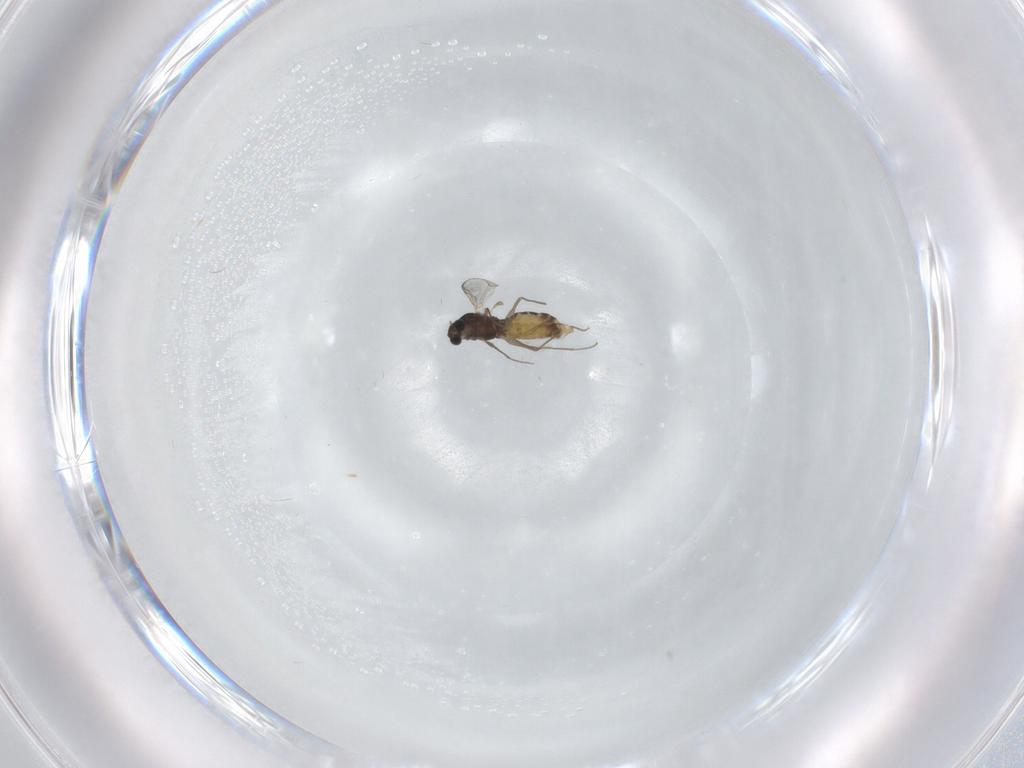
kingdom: Animalia
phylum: Arthropoda
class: Insecta
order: Diptera
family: Chironomidae
